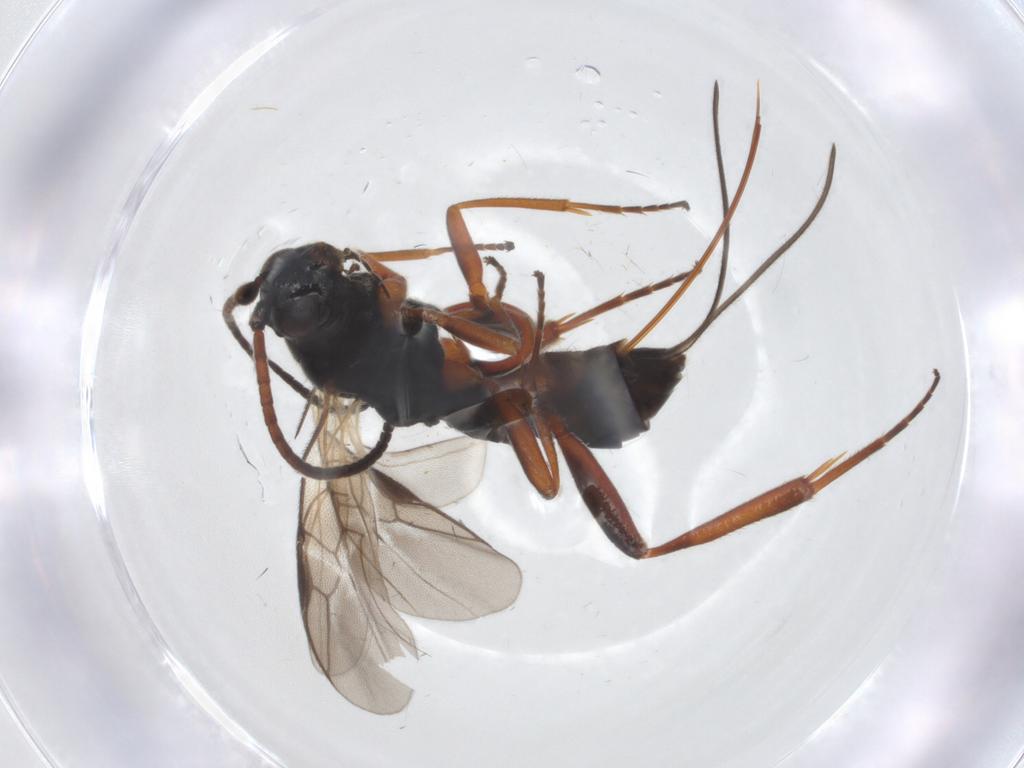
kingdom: Animalia
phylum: Arthropoda
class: Insecta
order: Hymenoptera
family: Braconidae
